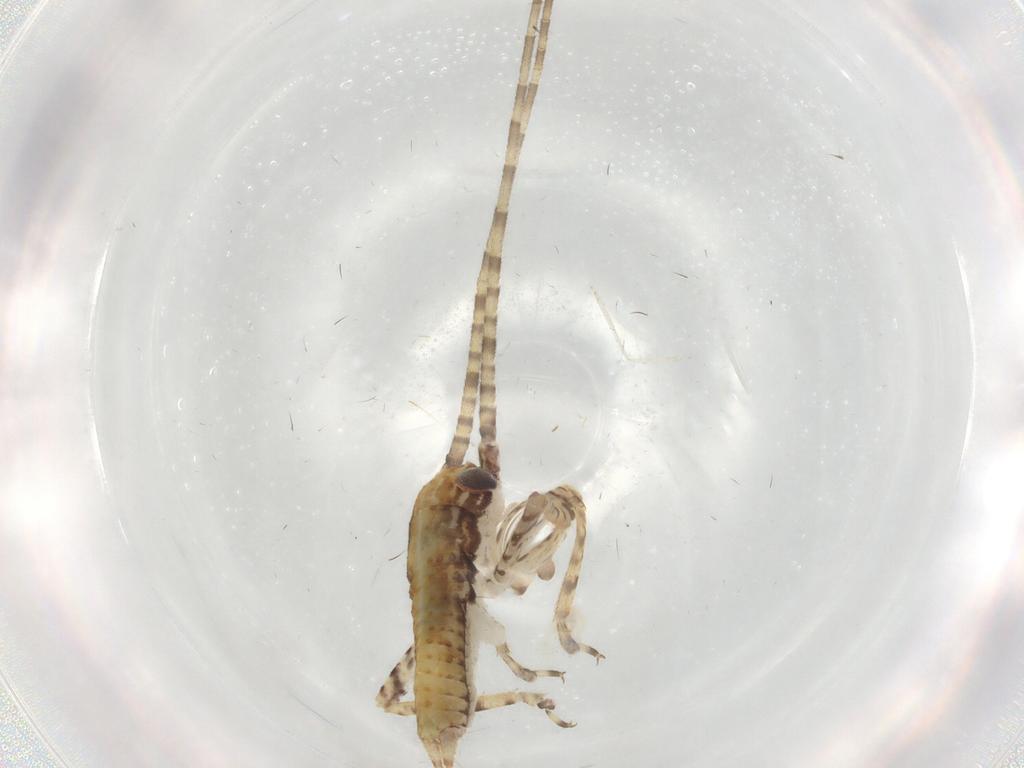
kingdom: Animalia
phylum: Arthropoda
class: Insecta
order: Orthoptera
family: Gryllidae
